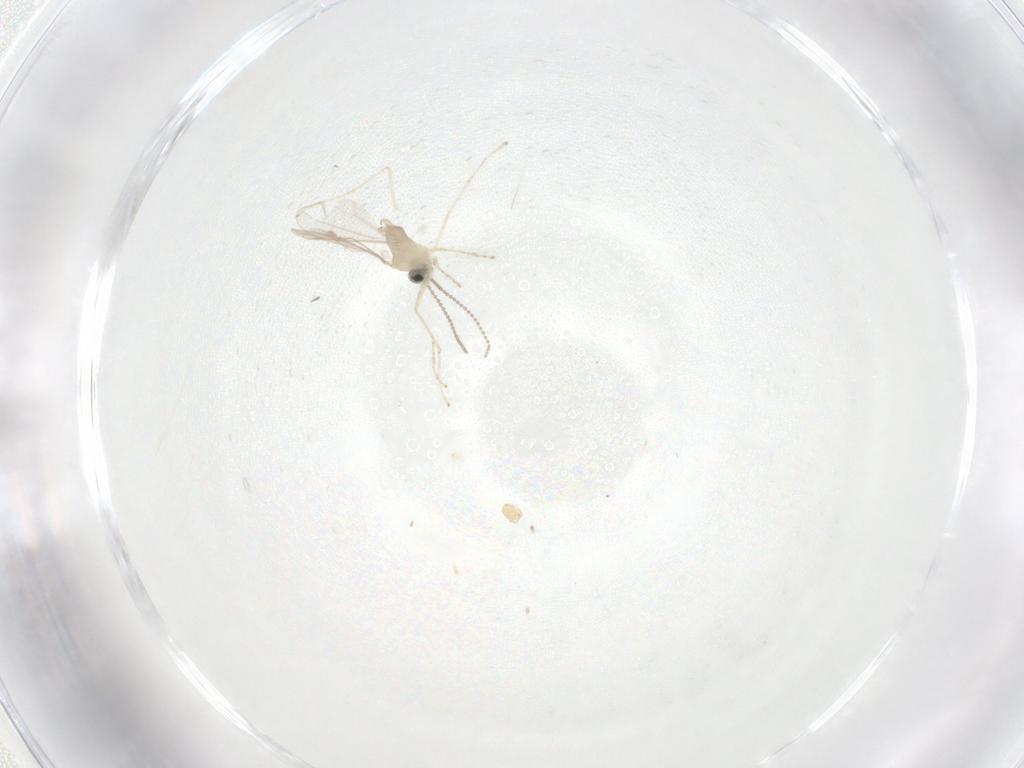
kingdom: Animalia
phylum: Arthropoda
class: Insecta
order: Diptera
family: Cecidomyiidae
